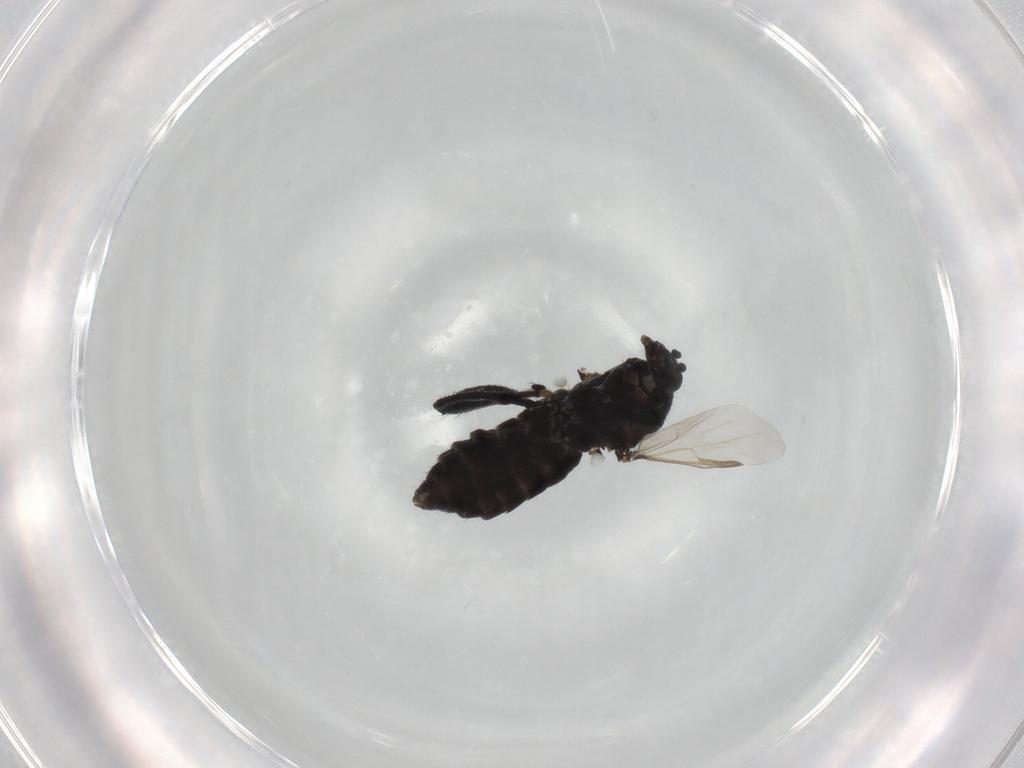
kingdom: Animalia
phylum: Arthropoda
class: Insecta
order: Diptera
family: Ceratopogonidae
